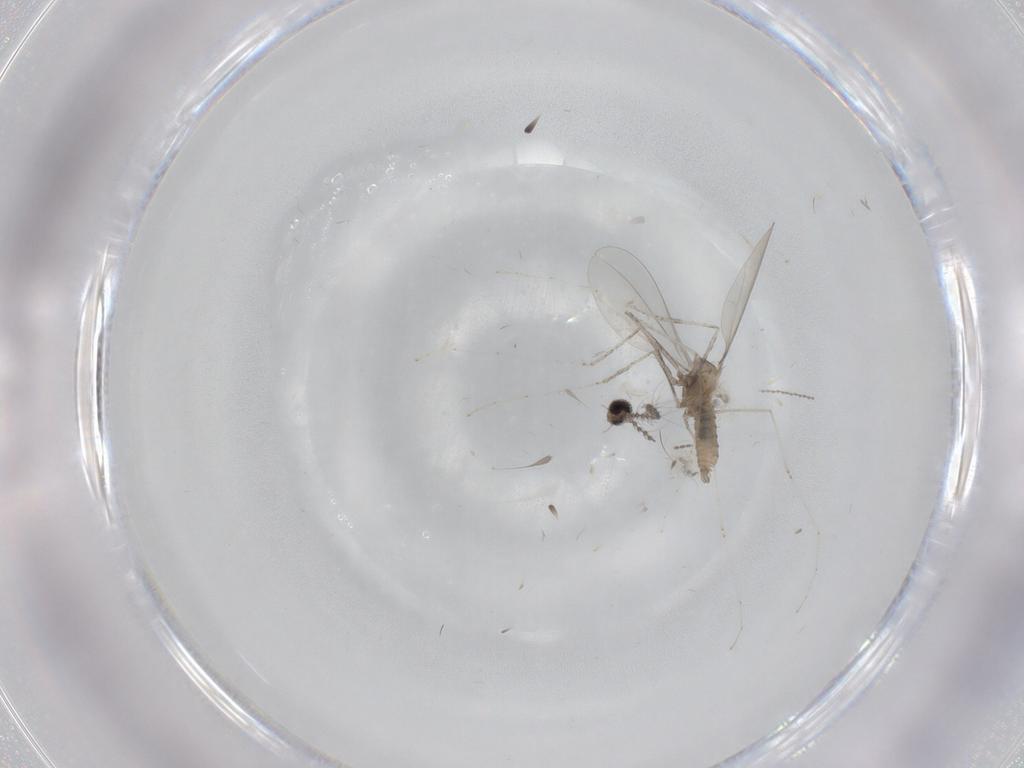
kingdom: Animalia
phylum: Arthropoda
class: Insecta
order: Diptera
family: Cecidomyiidae
